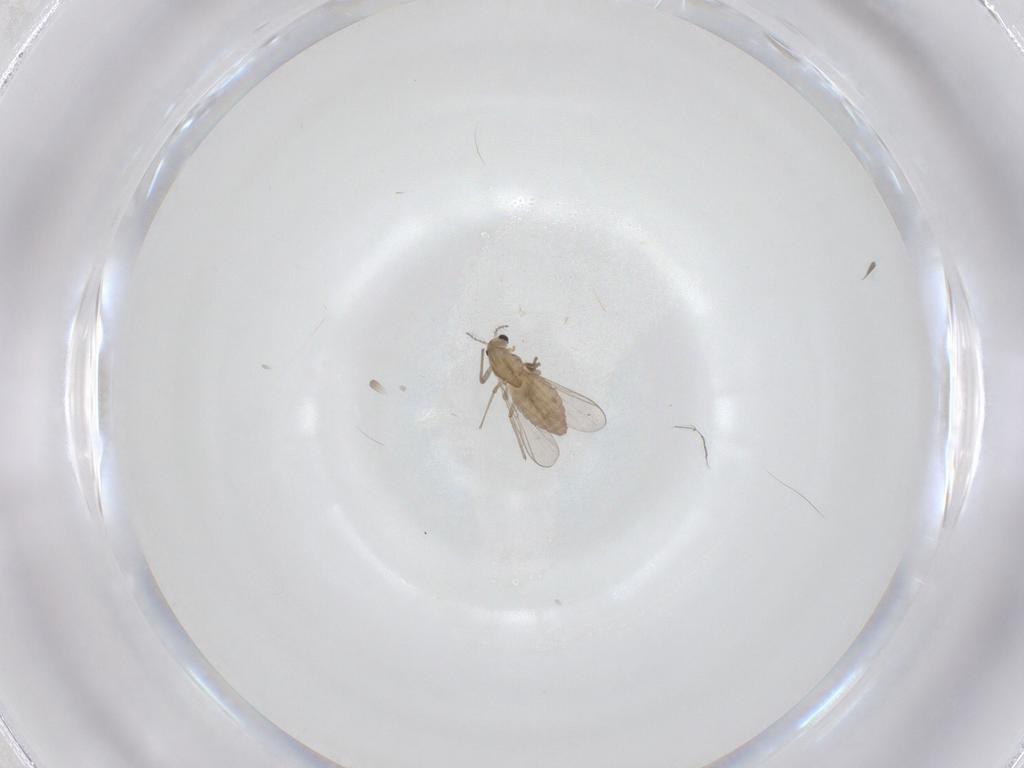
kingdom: Animalia
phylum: Arthropoda
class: Insecta
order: Diptera
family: Chironomidae
